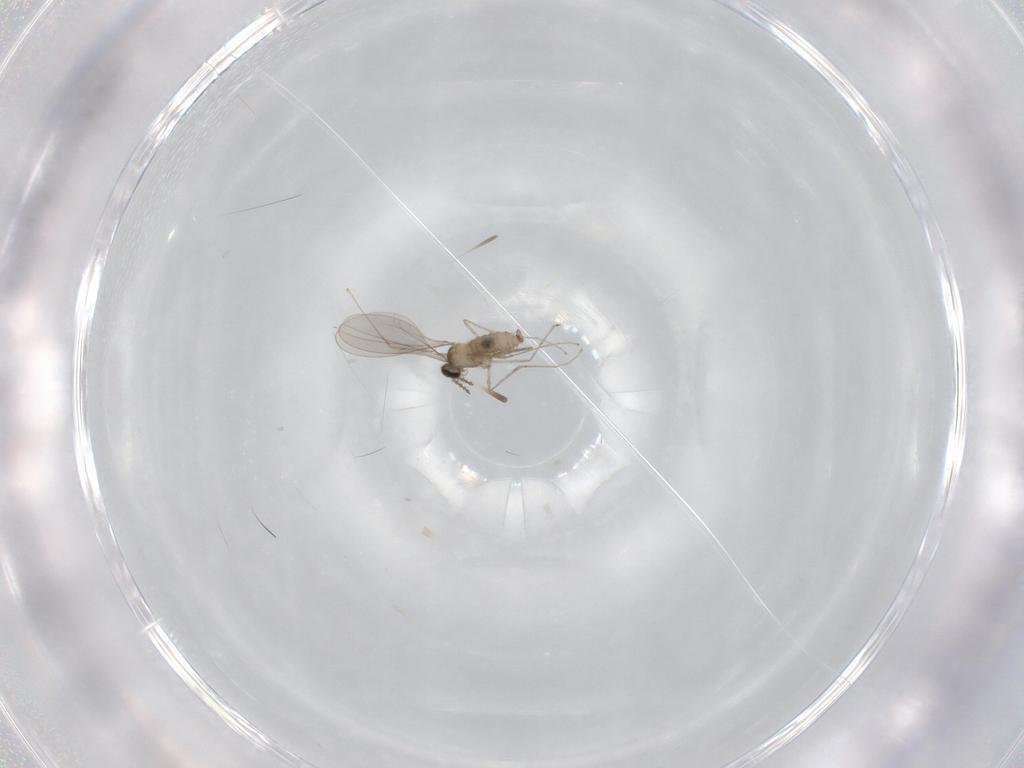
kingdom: Animalia
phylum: Arthropoda
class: Insecta
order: Diptera
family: Cecidomyiidae
